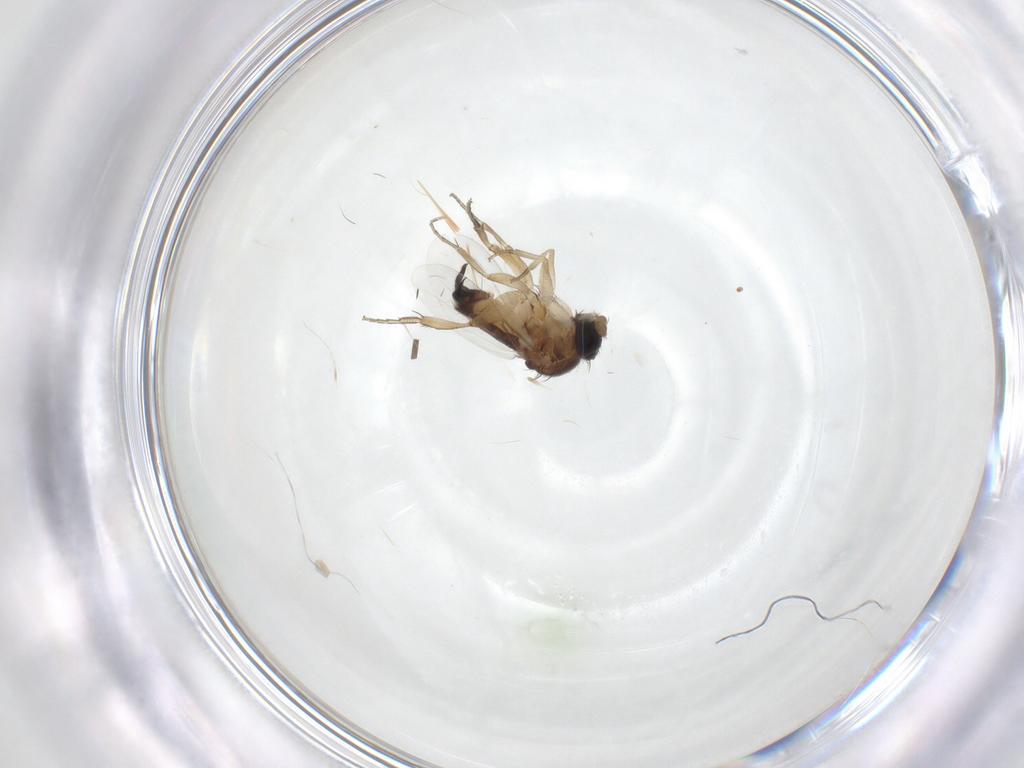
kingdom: Animalia
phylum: Arthropoda
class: Insecta
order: Diptera
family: Phoridae
